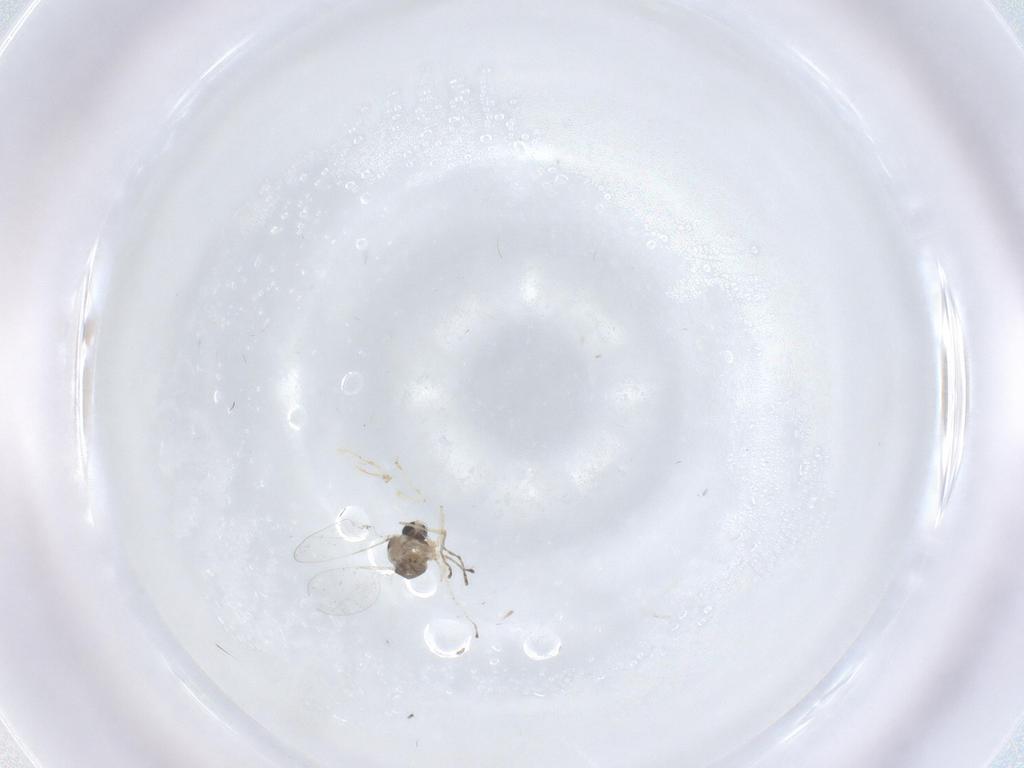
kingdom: Animalia
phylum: Arthropoda
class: Insecta
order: Diptera
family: Cecidomyiidae
